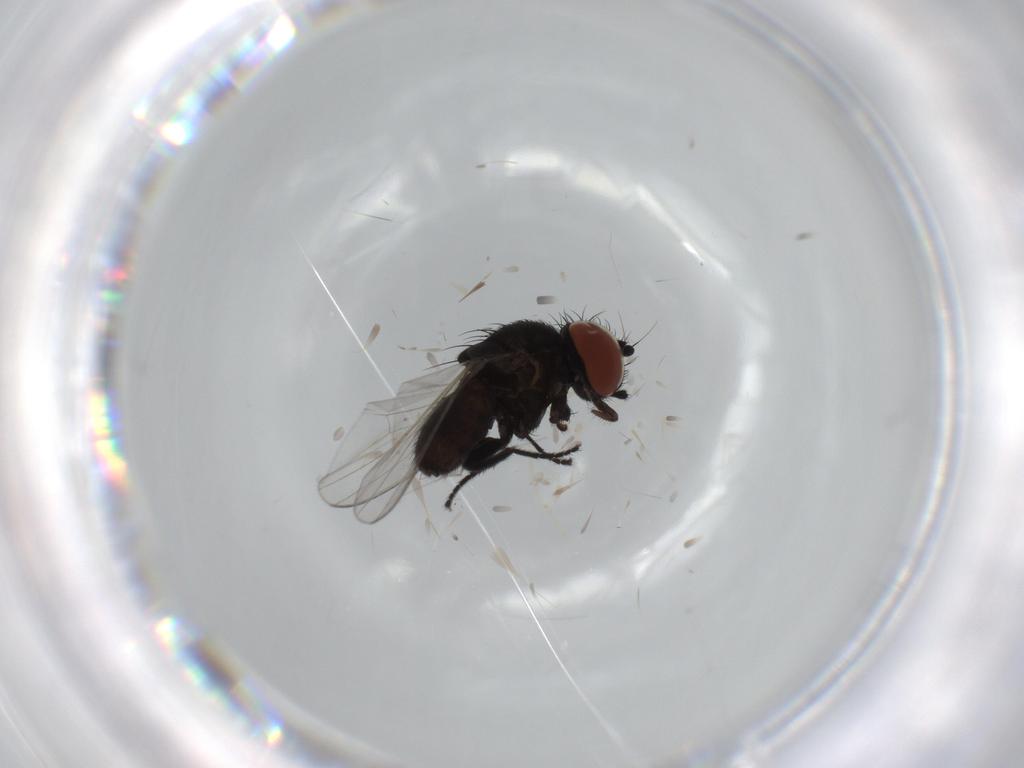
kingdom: Animalia
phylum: Arthropoda
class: Insecta
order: Diptera
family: Milichiidae
